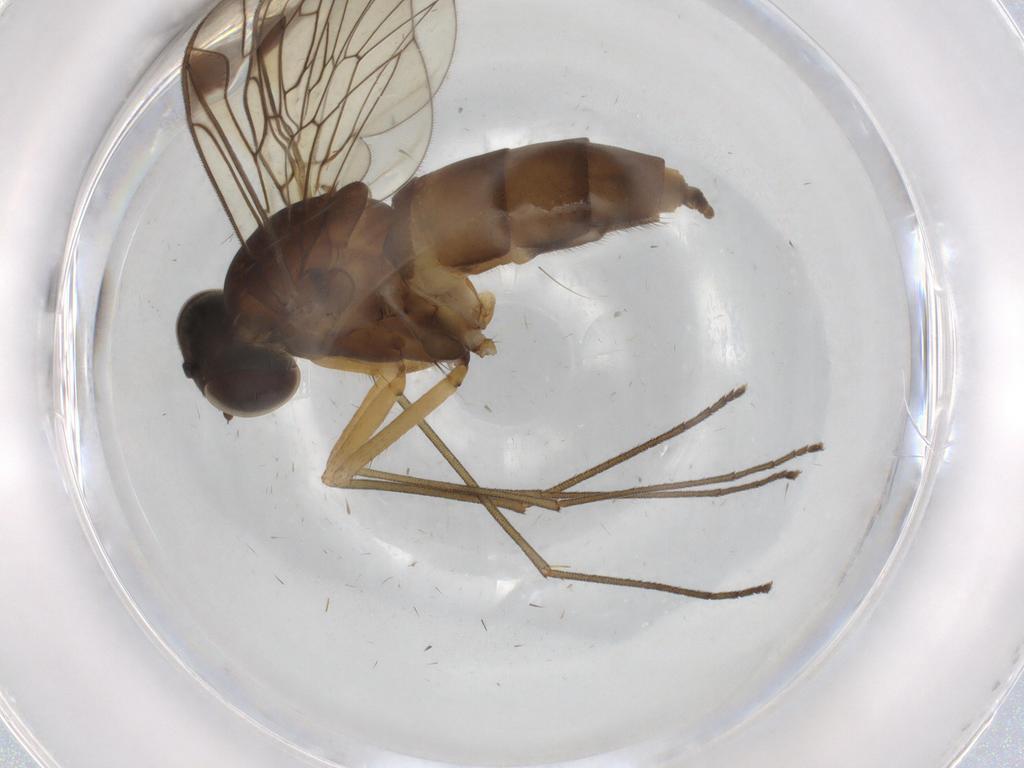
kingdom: Animalia
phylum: Arthropoda
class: Insecta
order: Diptera
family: Cecidomyiidae
